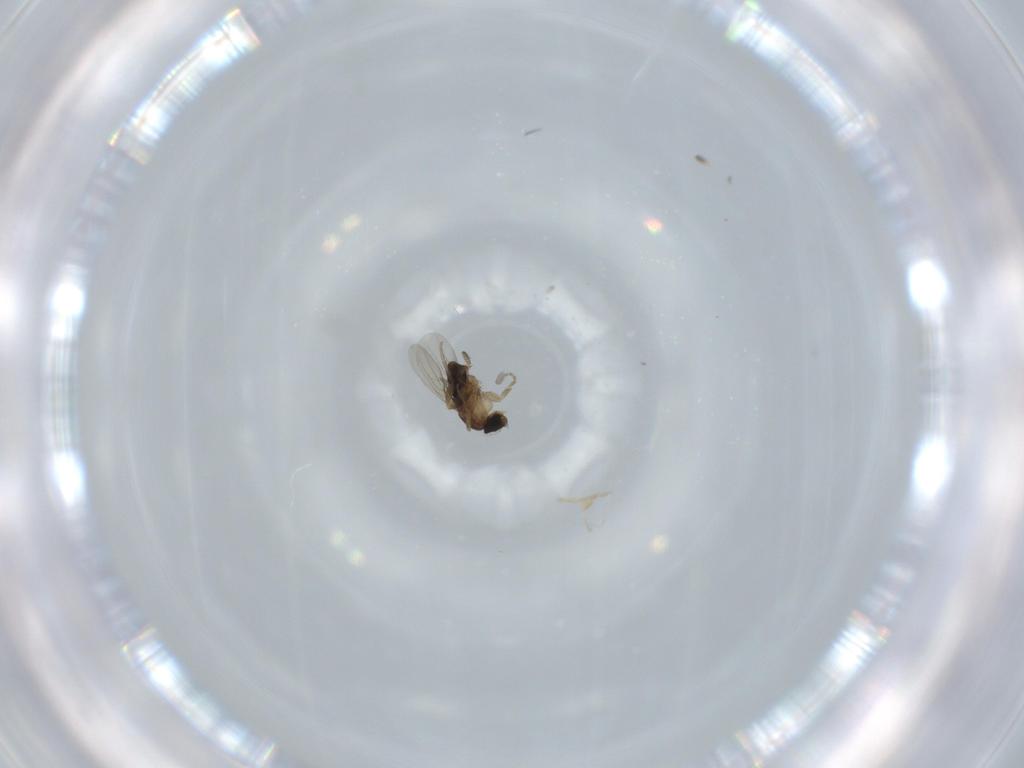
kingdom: Animalia
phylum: Arthropoda
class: Insecta
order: Diptera
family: Phoridae
